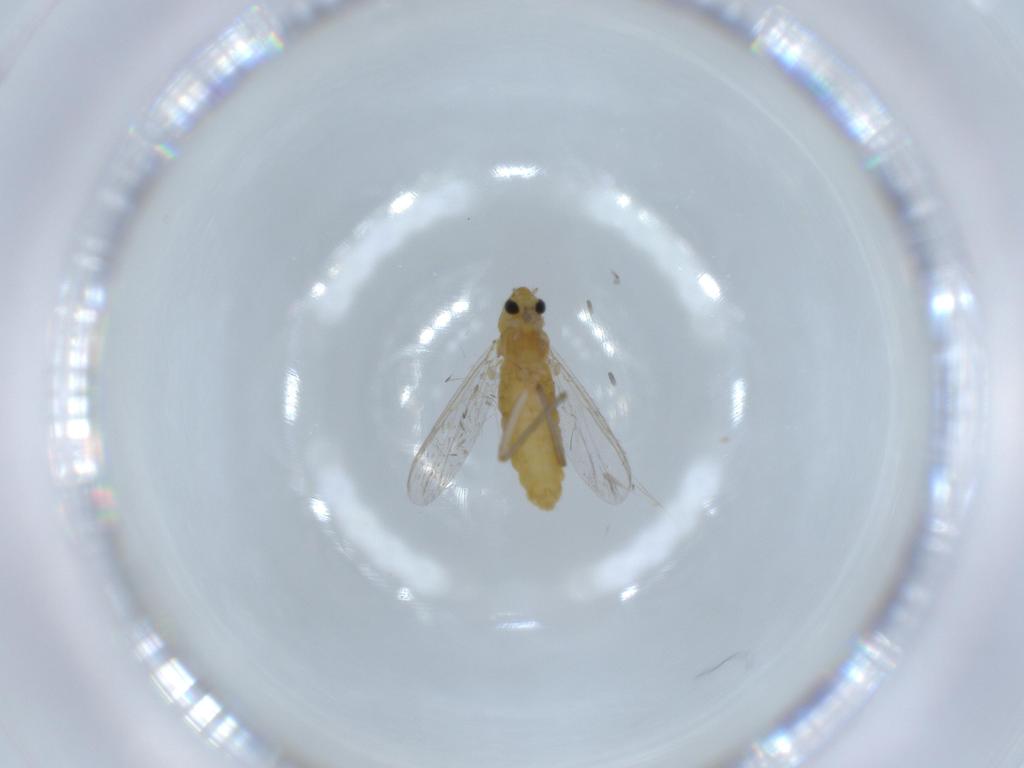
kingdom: Animalia
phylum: Arthropoda
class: Insecta
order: Diptera
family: Chironomidae
